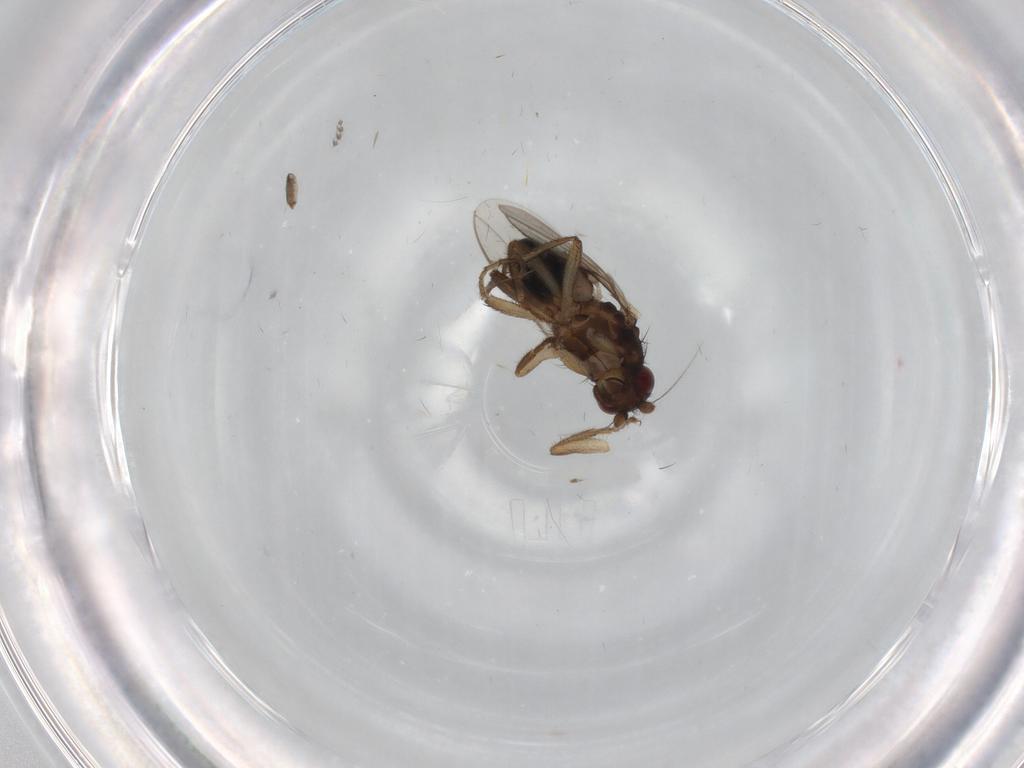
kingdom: Animalia
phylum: Arthropoda
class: Insecta
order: Diptera
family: Sphaeroceridae
